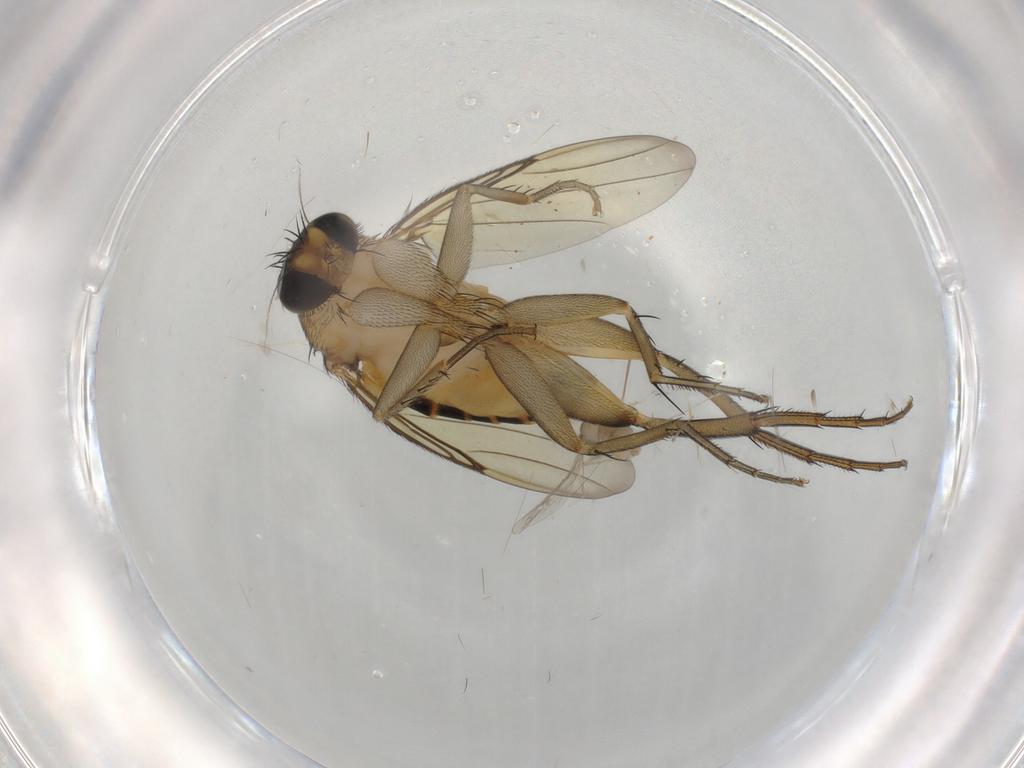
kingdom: Animalia
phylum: Arthropoda
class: Insecta
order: Diptera
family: Phoridae
